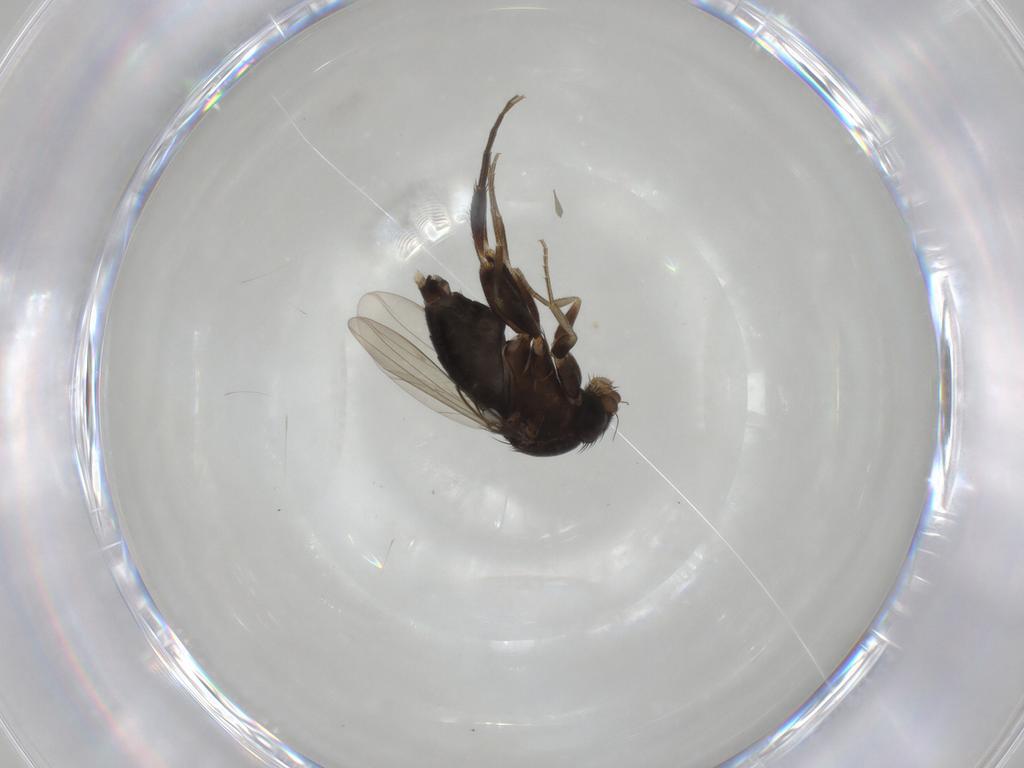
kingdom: Animalia
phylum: Arthropoda
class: Insecta
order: Diptera
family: Phoridae
